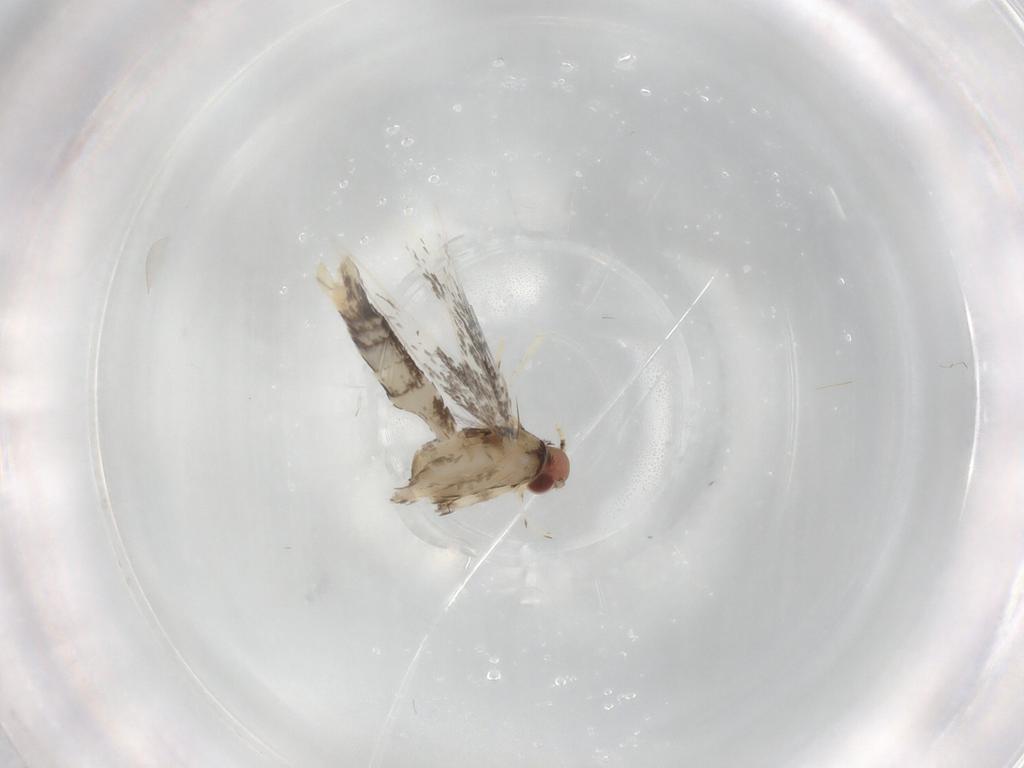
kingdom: Animalia
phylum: Arthropoda
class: Insecta
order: Lepidoptera
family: Gracillariidae
